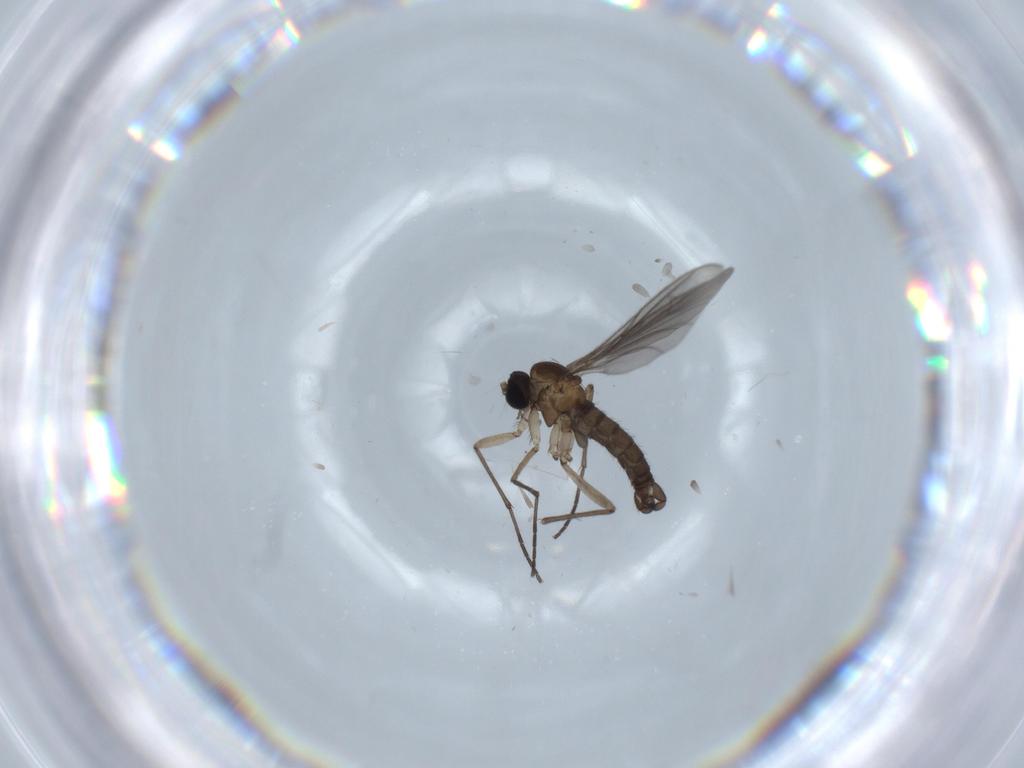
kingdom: Animalia
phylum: Arthropoda
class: Insecta
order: Diptera
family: Sciaridae
